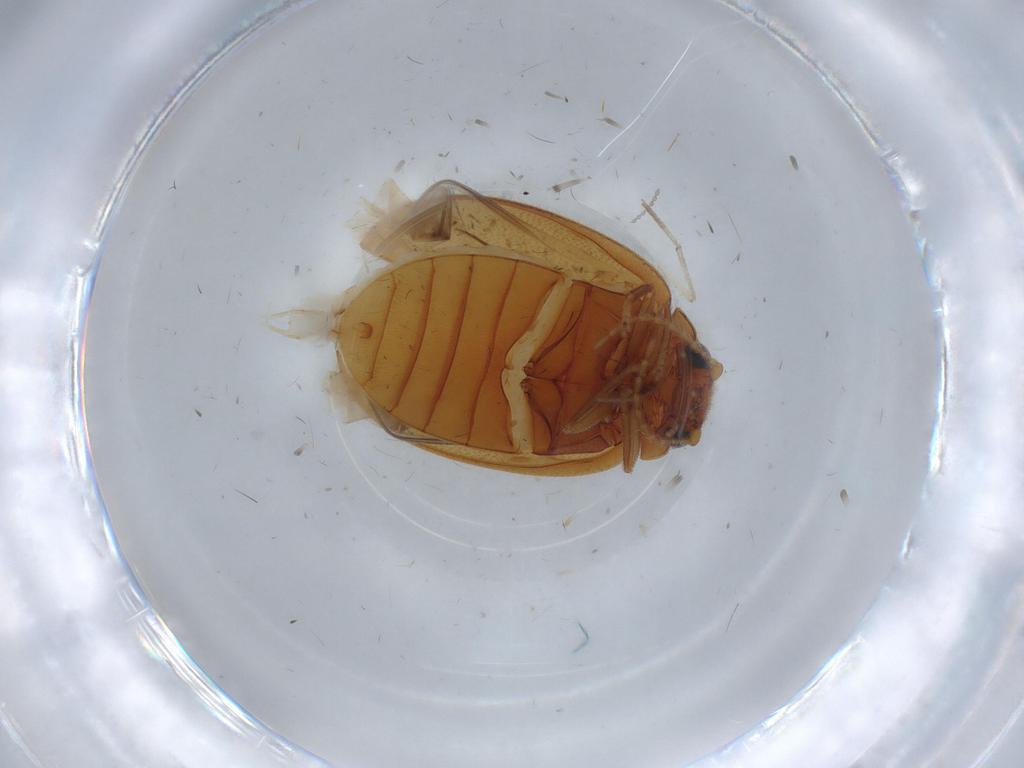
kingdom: Animalia
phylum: Arthropoda
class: Insecta
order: Coleoptera
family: Scirtidae
